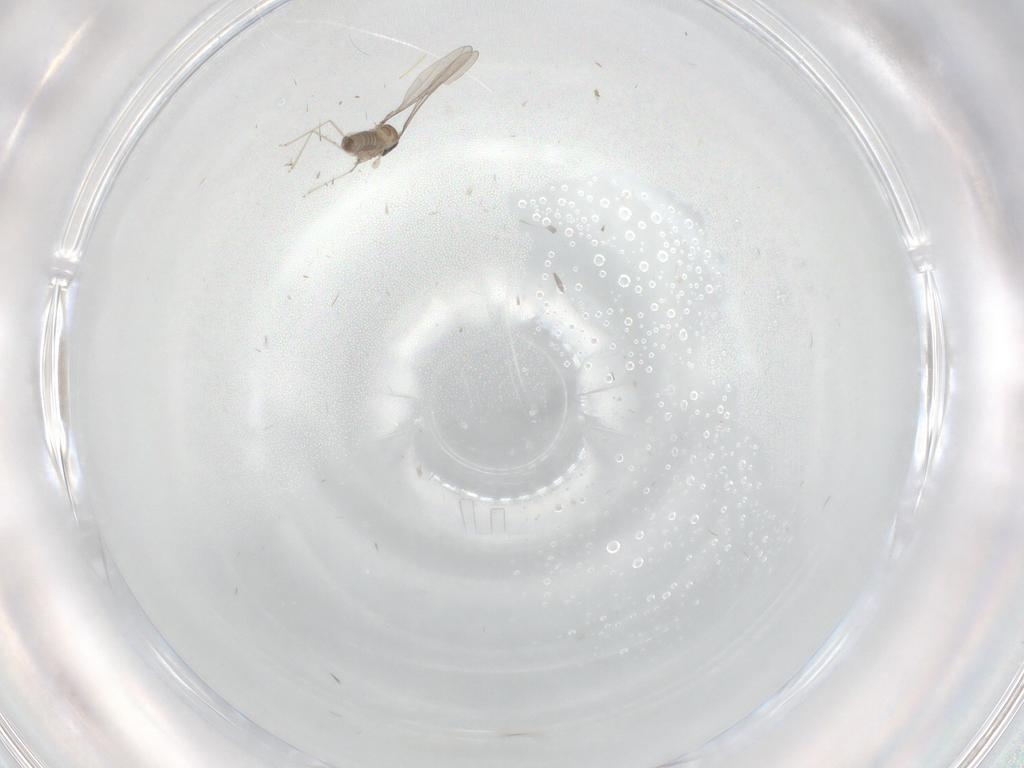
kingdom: Animalia
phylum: Arthropoda
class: Insecta
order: Diptera
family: Cecidomyiidae
